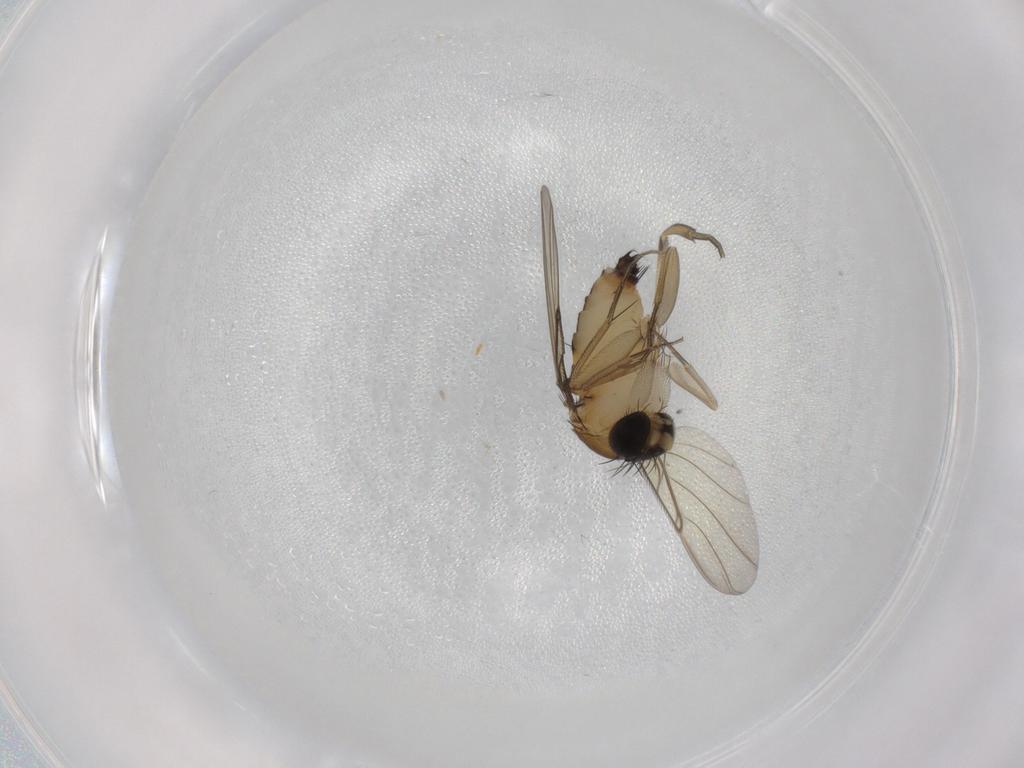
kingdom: Animalia
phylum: Arthropoda
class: Insecta
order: Diptera
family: Phoridae
